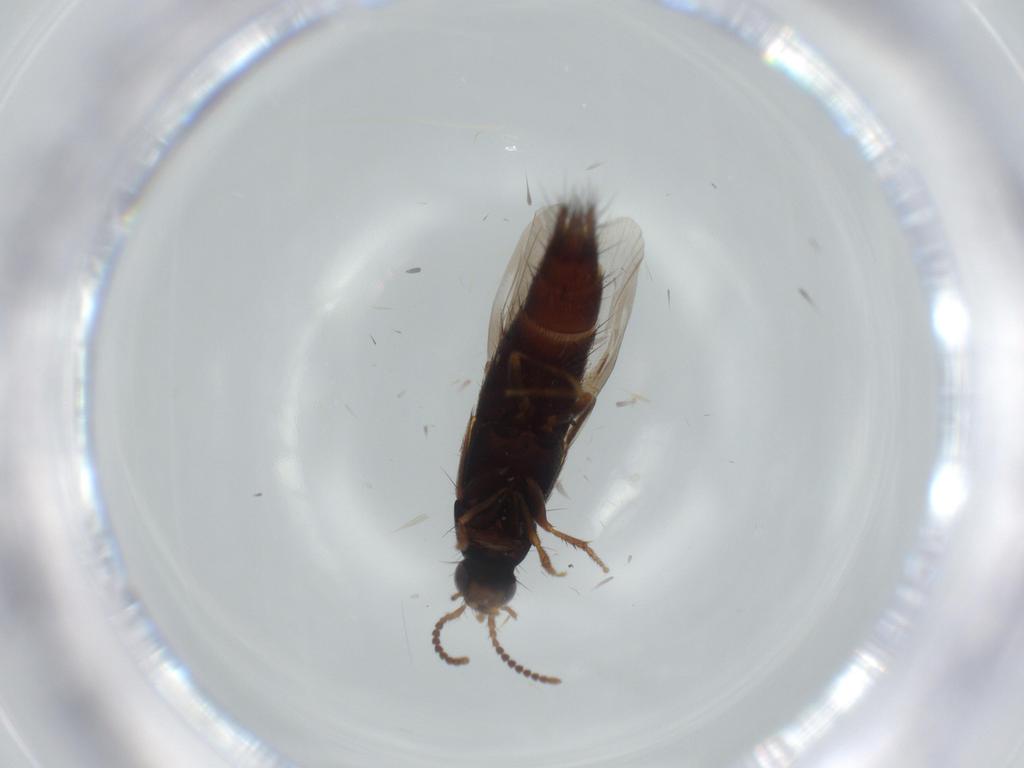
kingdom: Animalia
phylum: Arthropoda
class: Insecta
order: Coleoptera
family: Staphylinidae
